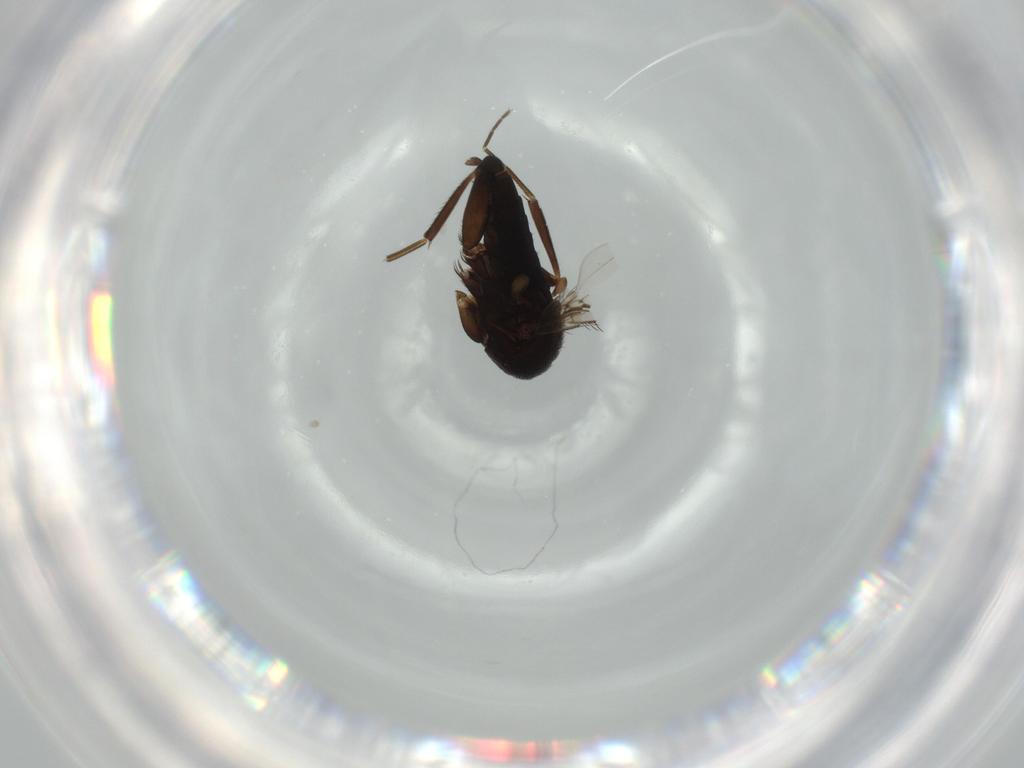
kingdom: Animalia
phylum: Arthropoda
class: Insecta
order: Diptera
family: Phoridae
